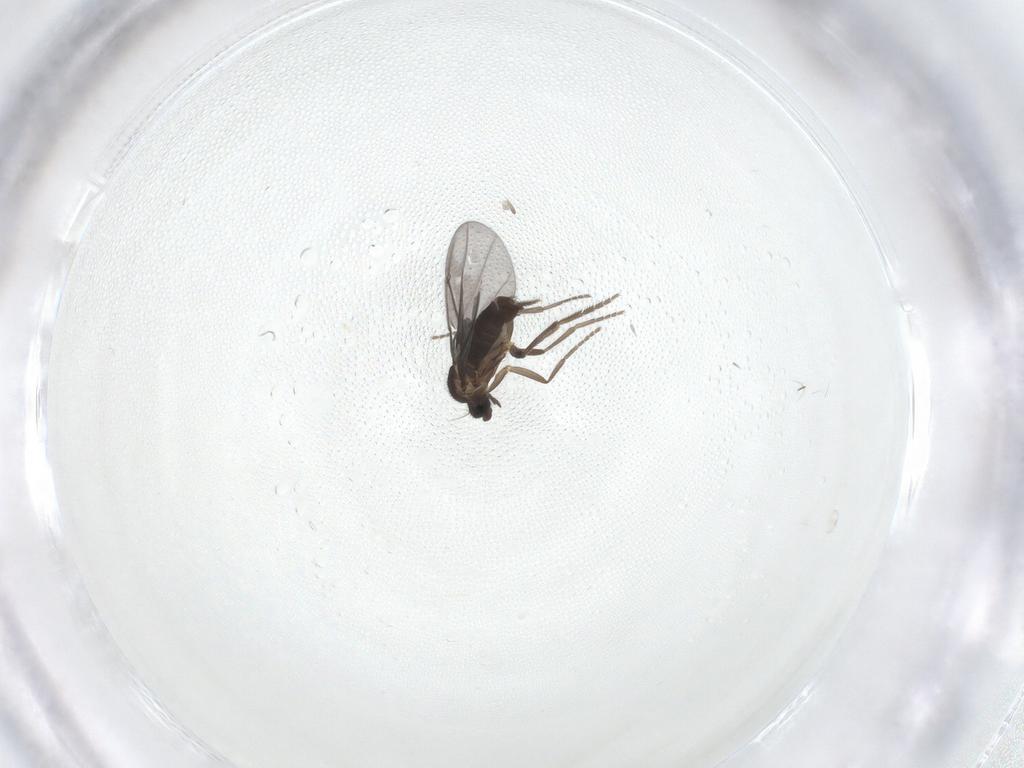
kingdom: Animalia
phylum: Arthropoda
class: Insecta
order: Diptera
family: Phoridae
